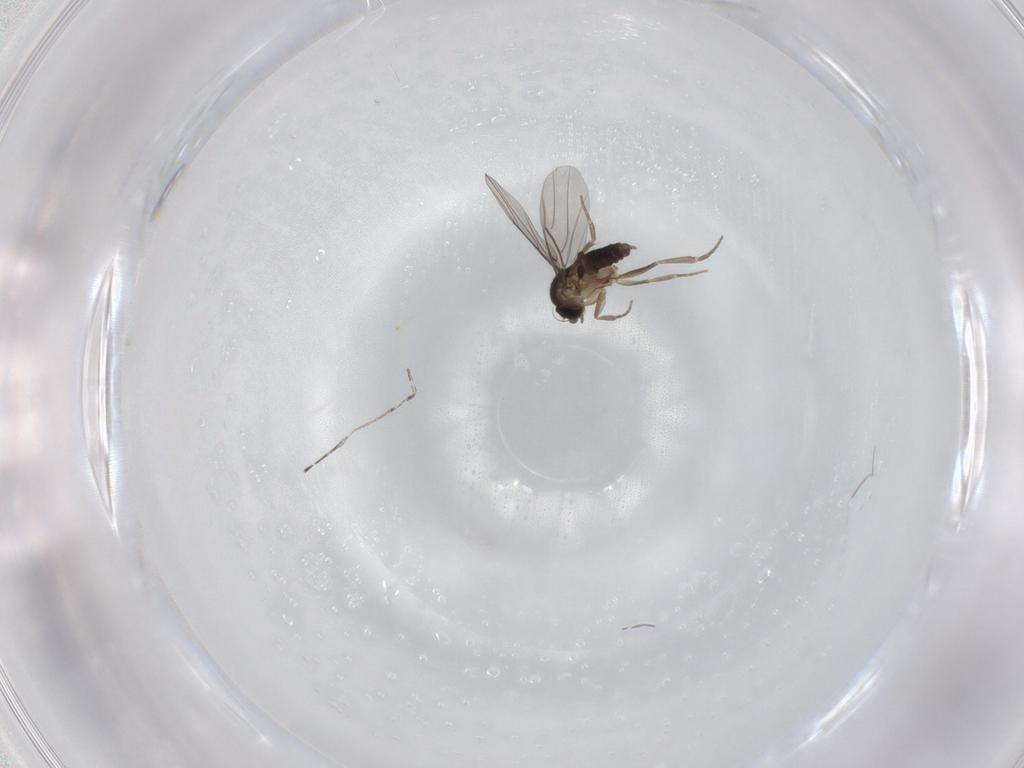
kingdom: Animalia
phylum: Arthropoda
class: Insecta
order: Diptera
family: Phoridae
